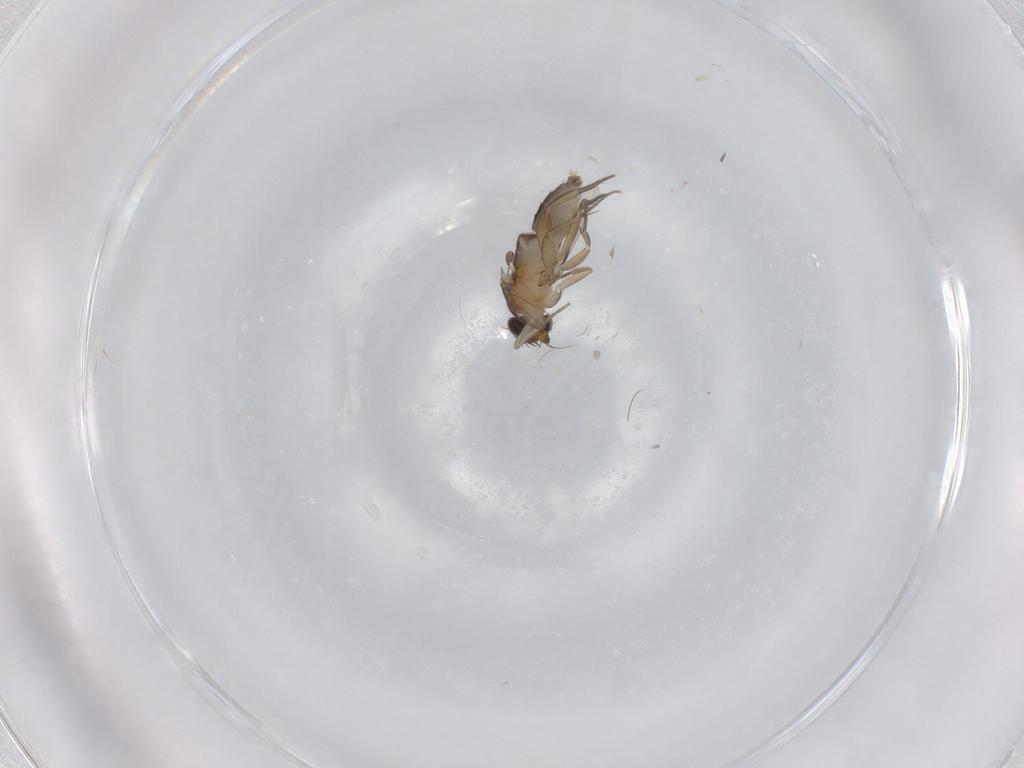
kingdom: Animalia
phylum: Arthropoda
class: Insecta
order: Diptera
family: Phoridae
